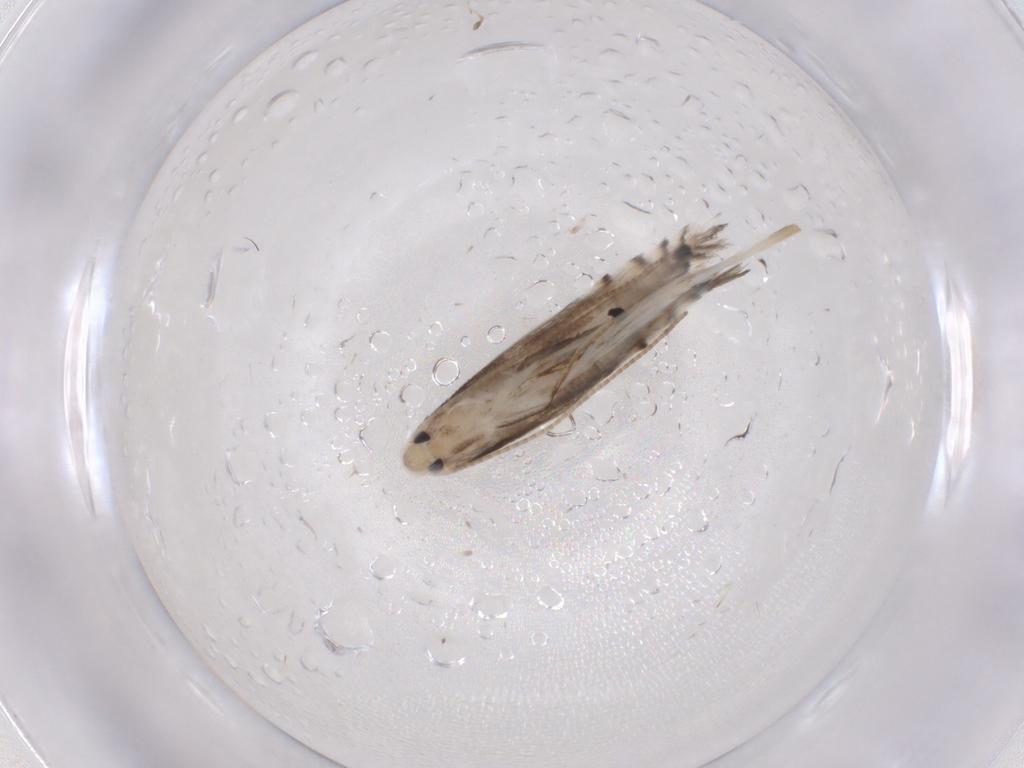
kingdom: Animalia
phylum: Arthropoda
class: Insecta
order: Lepidoptera
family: Gracillariidae
